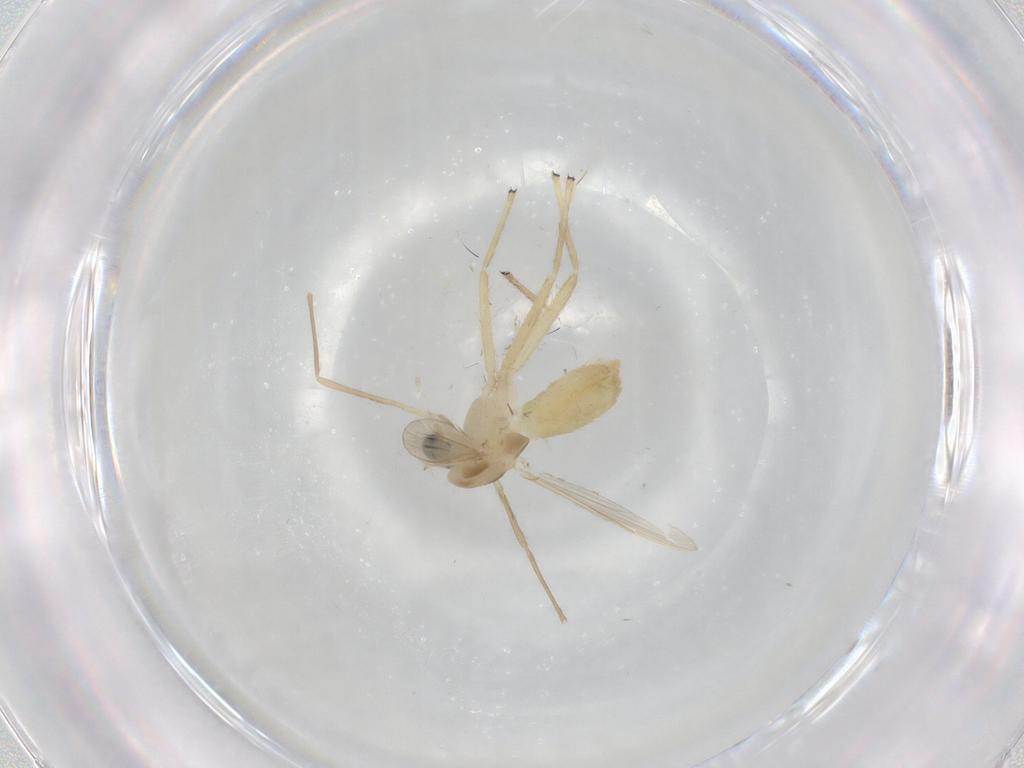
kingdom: Animalia
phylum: Arthropoda
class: Insecta
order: Diptera
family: Chironomidae
